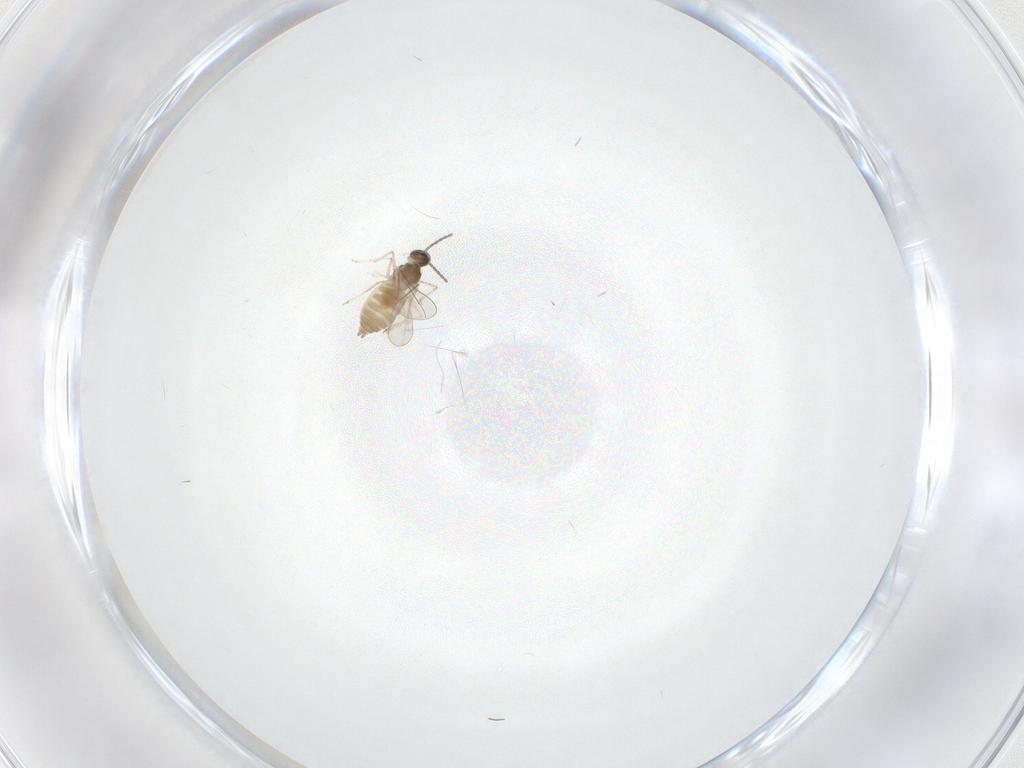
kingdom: Animalia
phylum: Arthropoda
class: Insecta
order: Diptera
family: Cecidomyiidae
